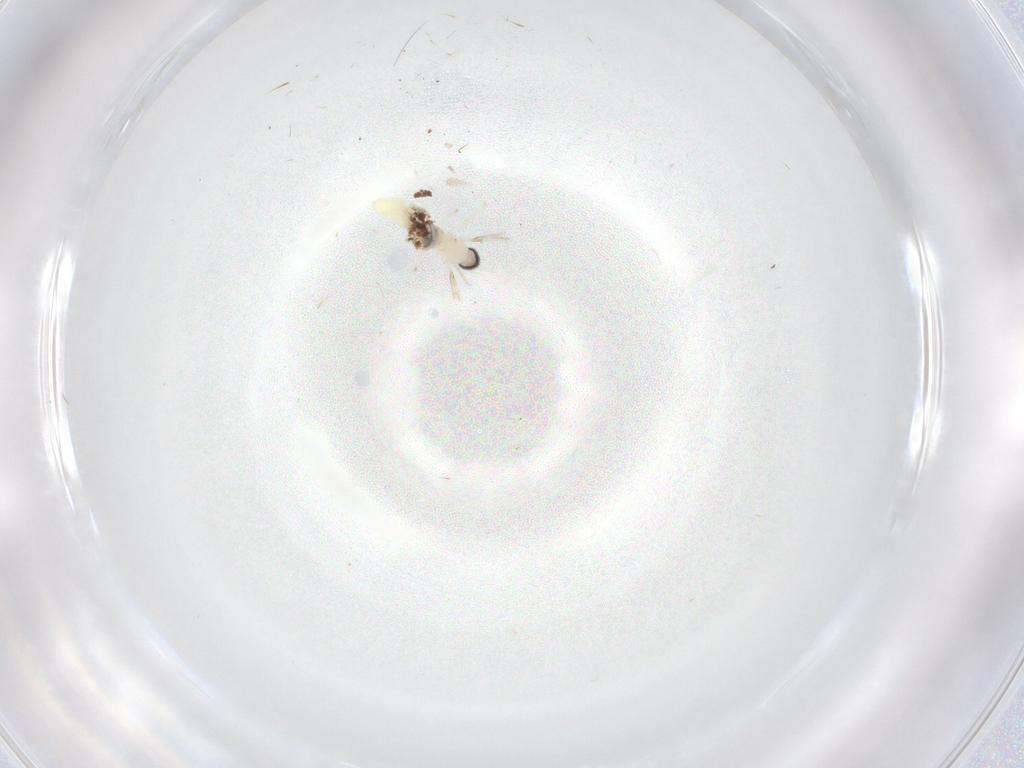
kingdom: Animalia
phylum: Arthropoda
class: Insecta
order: Diptera
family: Cecidomyiidae
